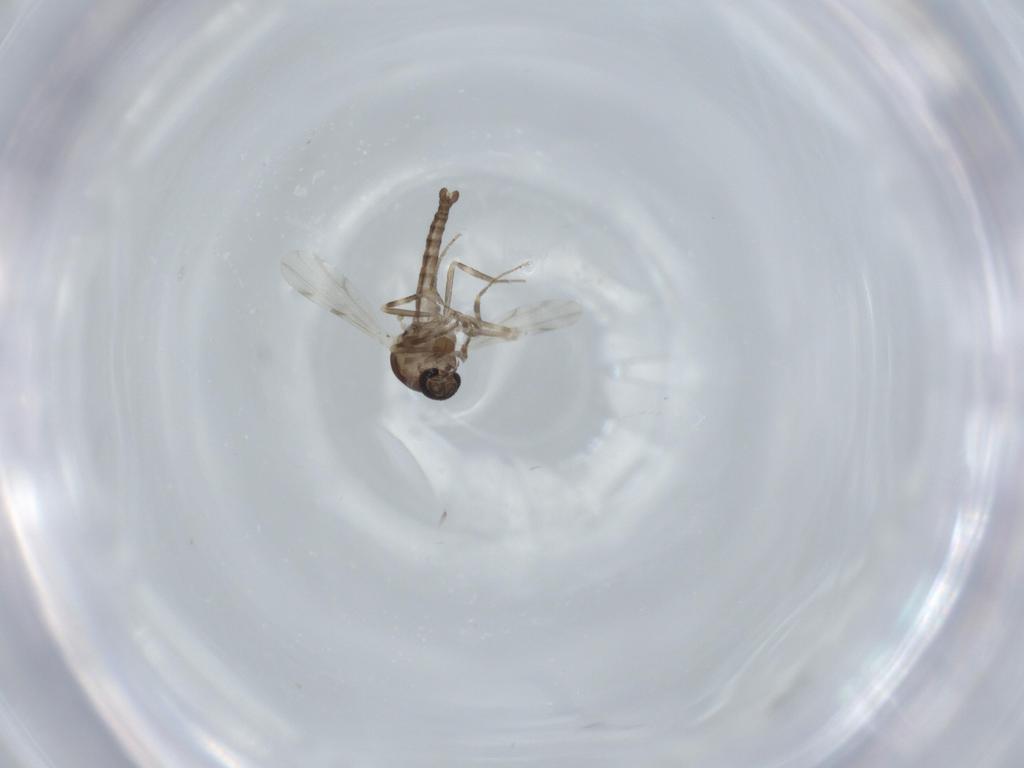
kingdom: Animalia
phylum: Arthropoda
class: Insecta
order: Diptera
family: Ceratopogonidae
